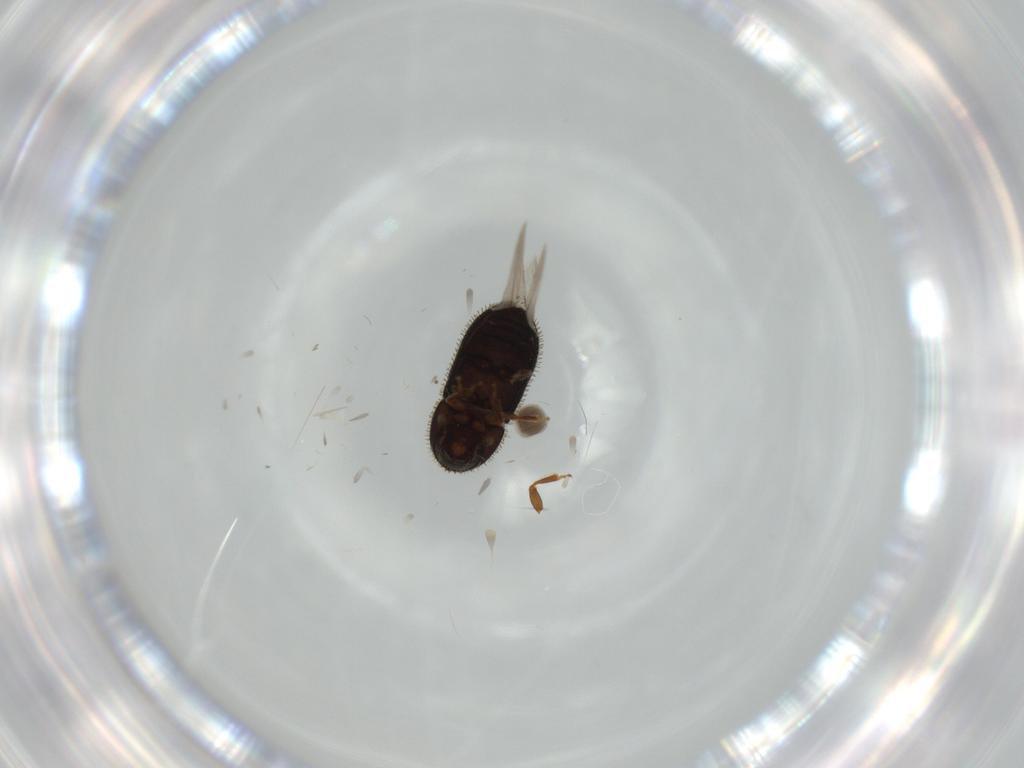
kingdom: Animalia
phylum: Arthropoda
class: Insecta
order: Coleoptera
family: Curculionidae
